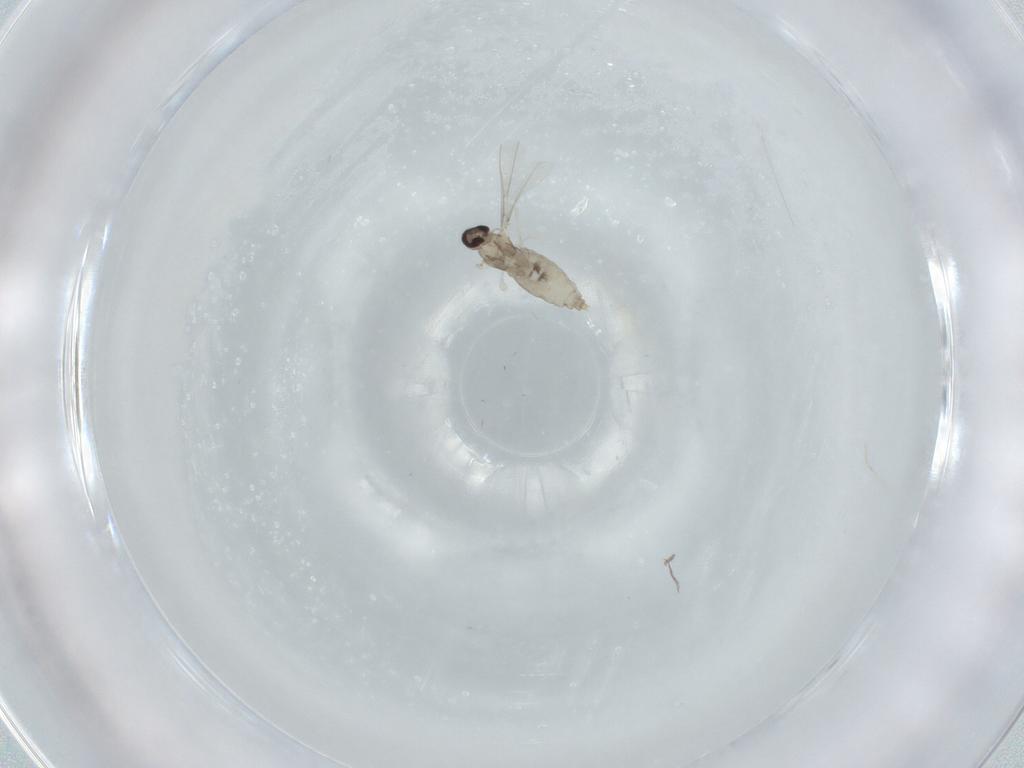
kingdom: Animalia
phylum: Arthropoda
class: Insecta
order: Diptera
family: Cecidomyiidae
